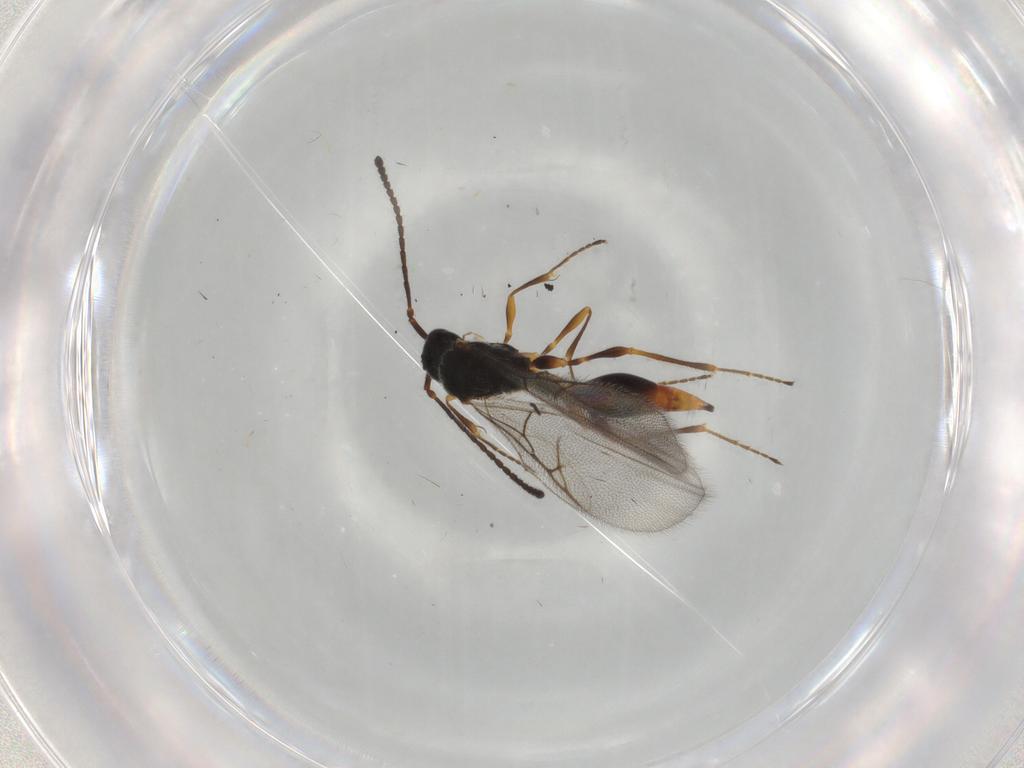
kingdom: Animalia
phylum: Arthropoda
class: Insecta
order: Hymenoptera
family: Diapriidae
